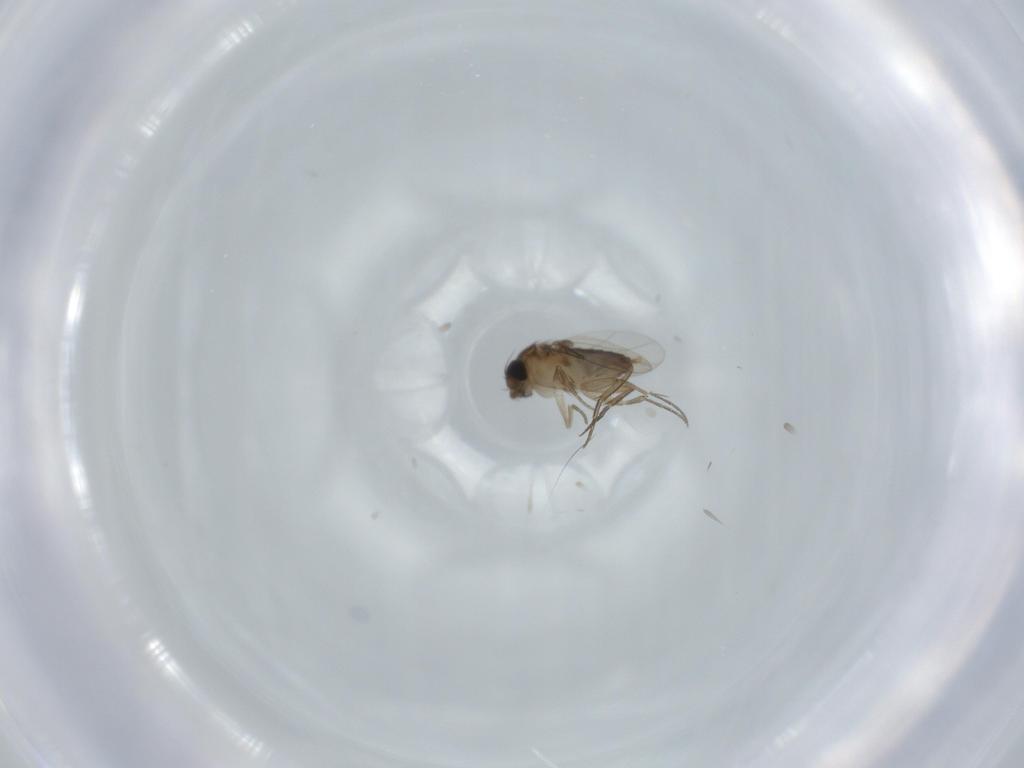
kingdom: Animalia
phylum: Arthropoda
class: Insecta
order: Diptera
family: Phoridae
